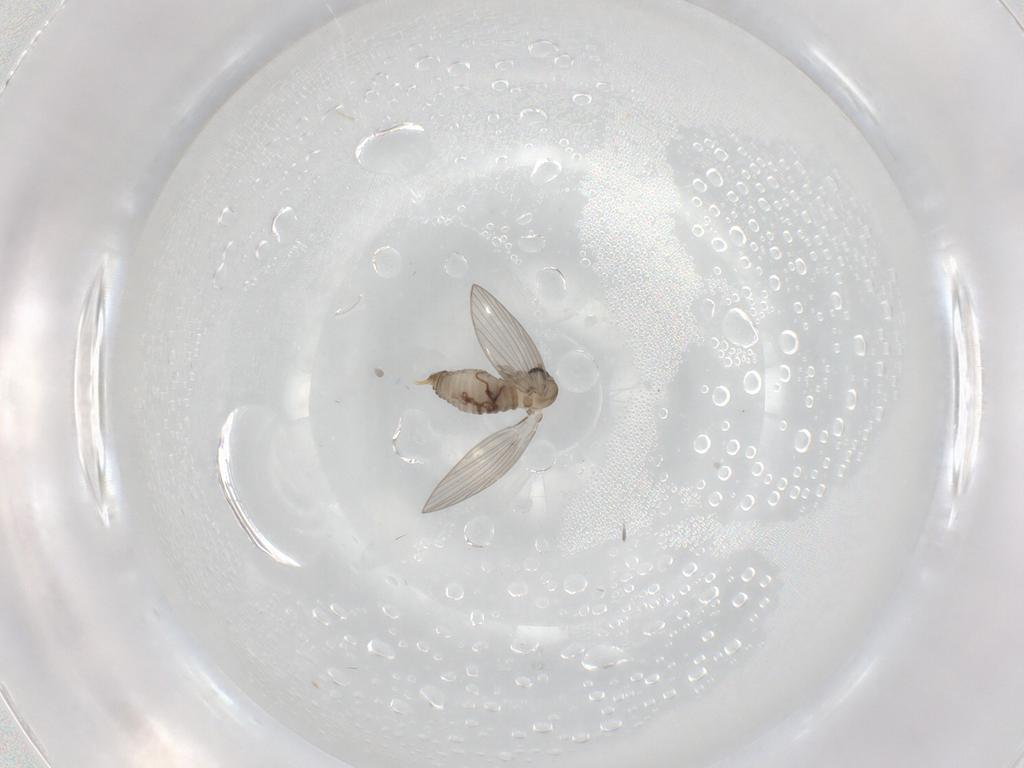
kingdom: Animalia
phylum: Arthropoda
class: Insecta
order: Diptera
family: Psychodidae
